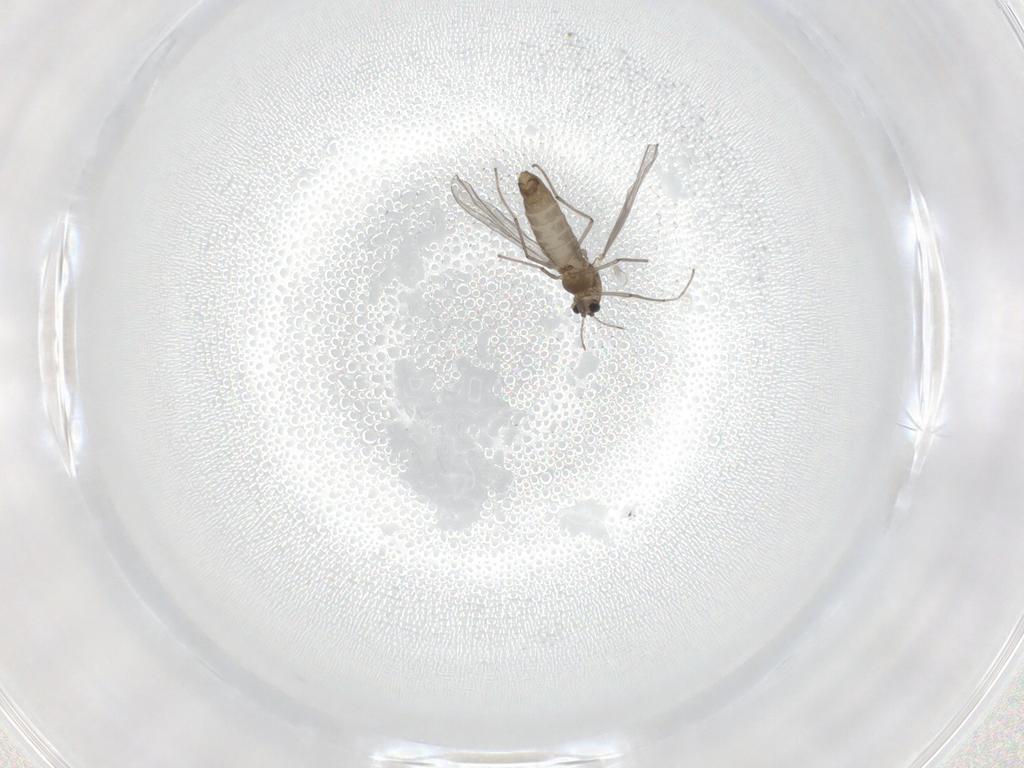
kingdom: Animalia
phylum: Arthropoda
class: Insecta
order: Diptera
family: Chironomidae
